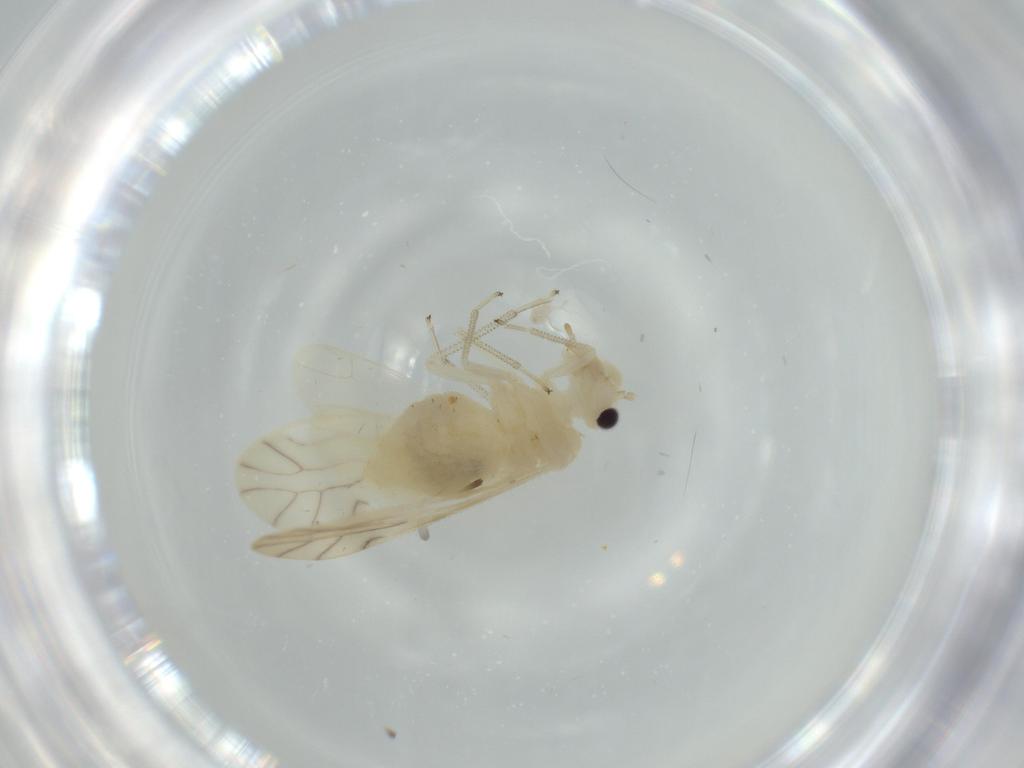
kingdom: Animalia
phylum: Arthropoda
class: Insecta
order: Psocodea
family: Caeciliusidae
